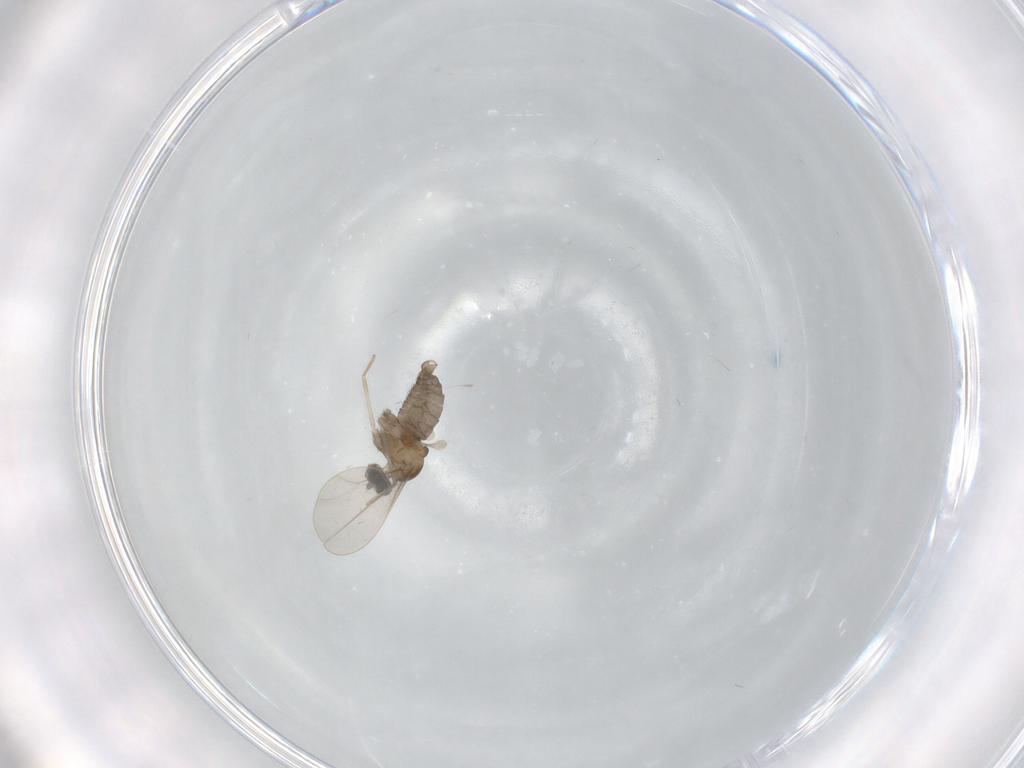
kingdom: Animalia
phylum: Arthropoda
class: Insecta
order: Diptera
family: Cecidomyiidae
